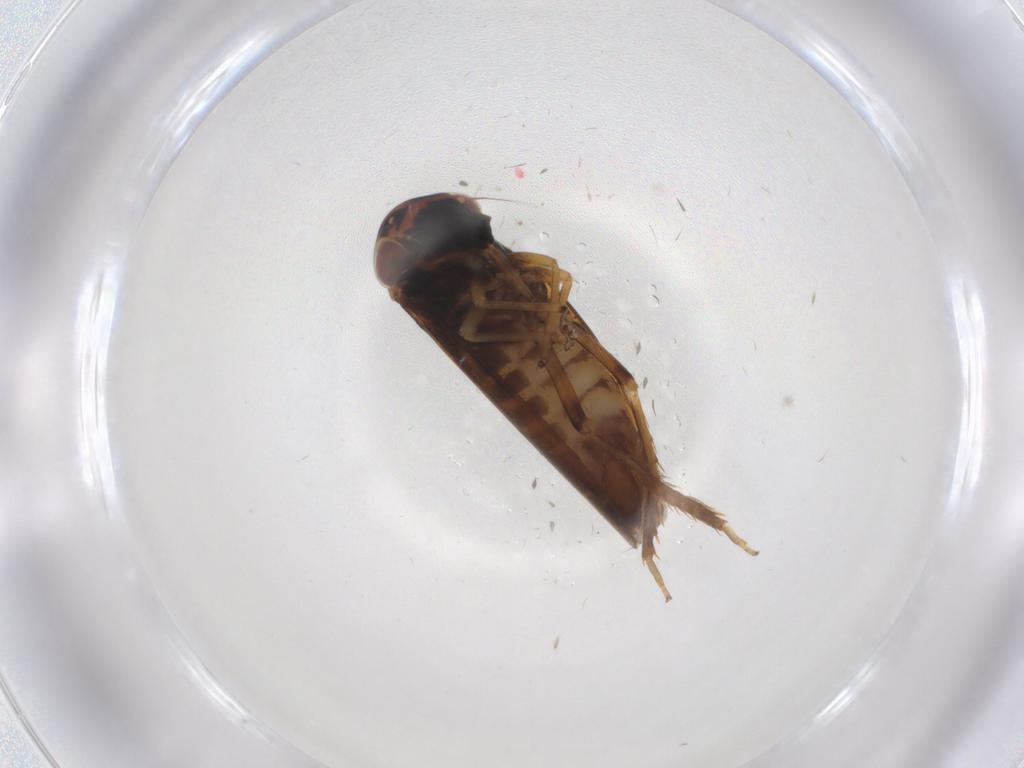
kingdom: Animalia
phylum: Arthropoda
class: Insecta
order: Hemiptera
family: Cicadellidae
